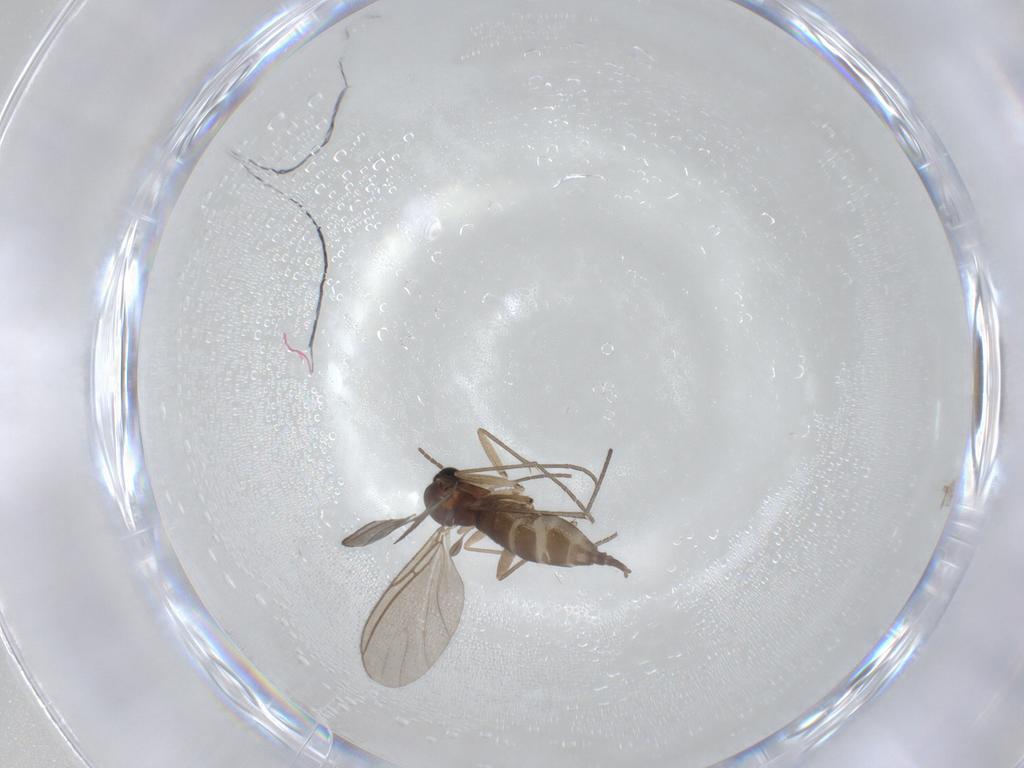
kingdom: Animalia
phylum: Arthropoda
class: Insecta
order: Diptera
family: Sciaridae
